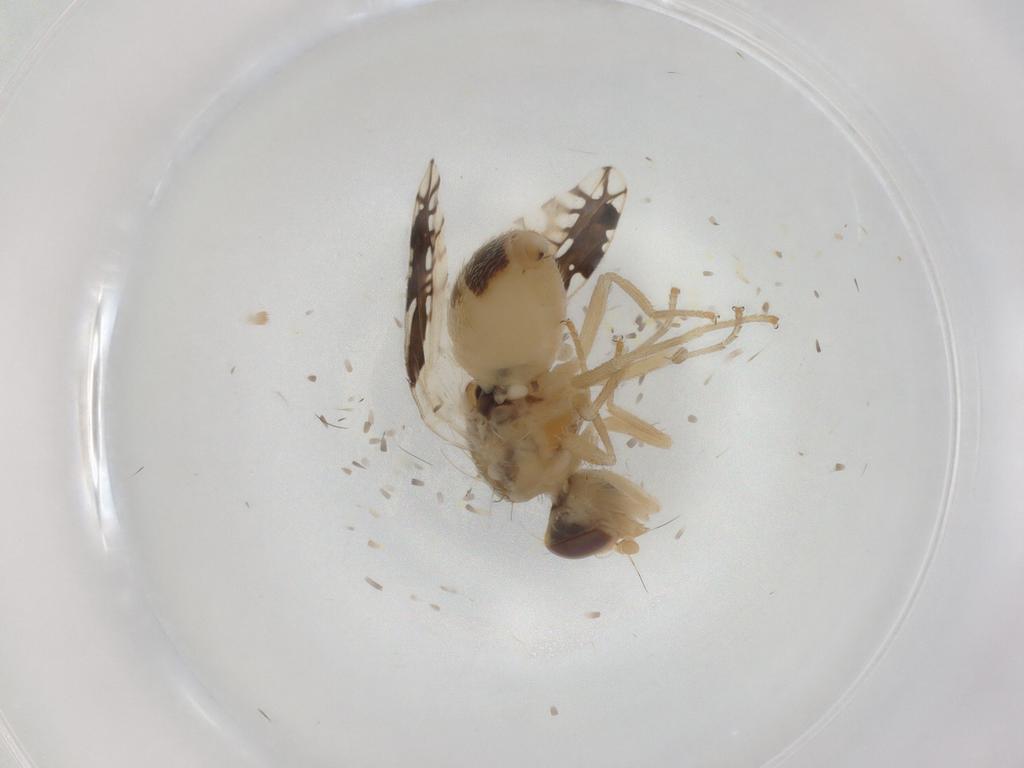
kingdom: Animalia
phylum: Arthropoda
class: Insecta
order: Diptera
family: Tephritidae
